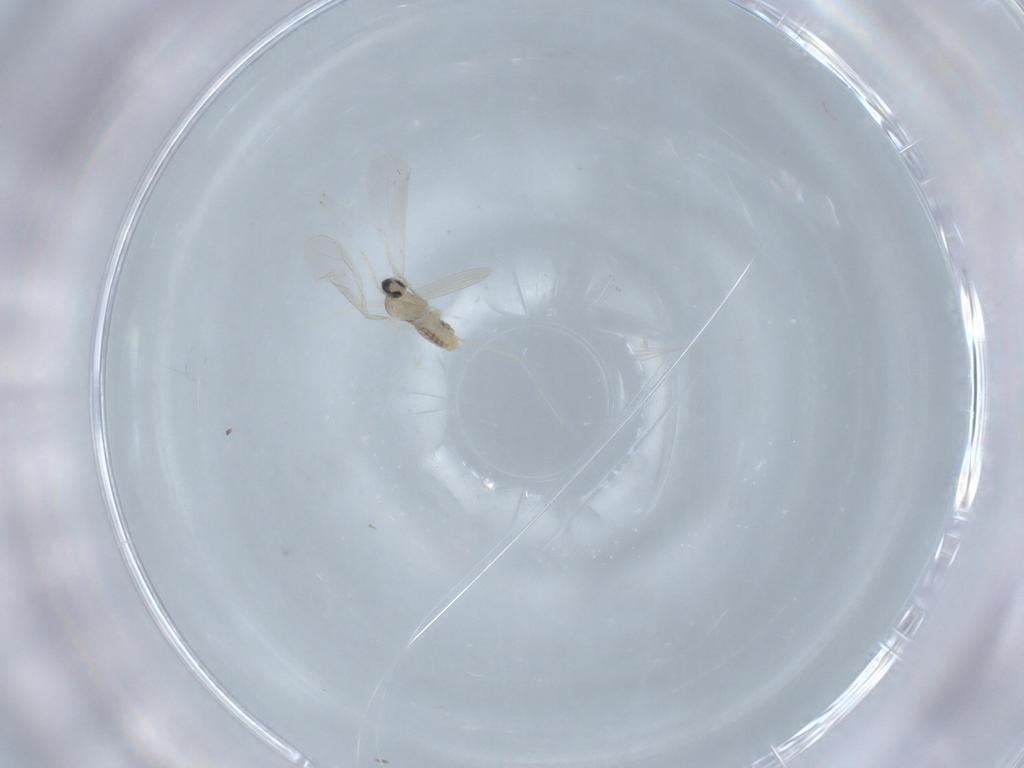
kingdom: Animalia
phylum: Arthropoda
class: Insecta
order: Diptera
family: Cecidomyiidae
